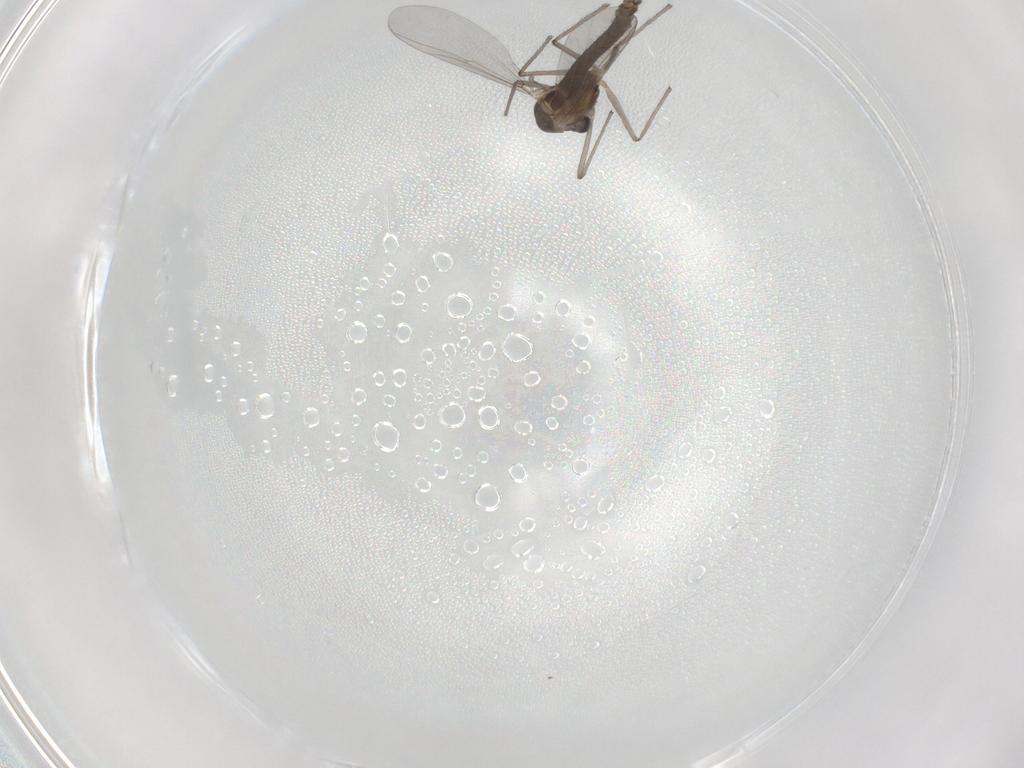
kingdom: Animalia
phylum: Arthropoda
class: Insecta
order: Diptera
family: Chironomidae
